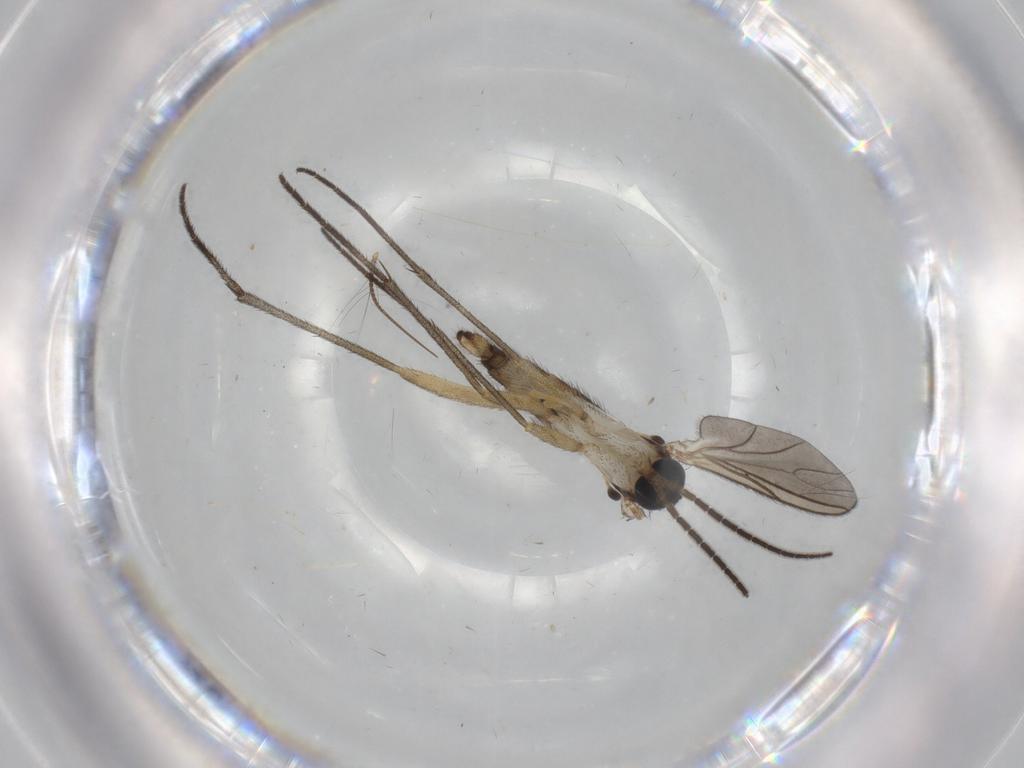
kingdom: Animalia
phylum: Arthropoda
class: Insecta
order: Diptera
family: Sciaridae
